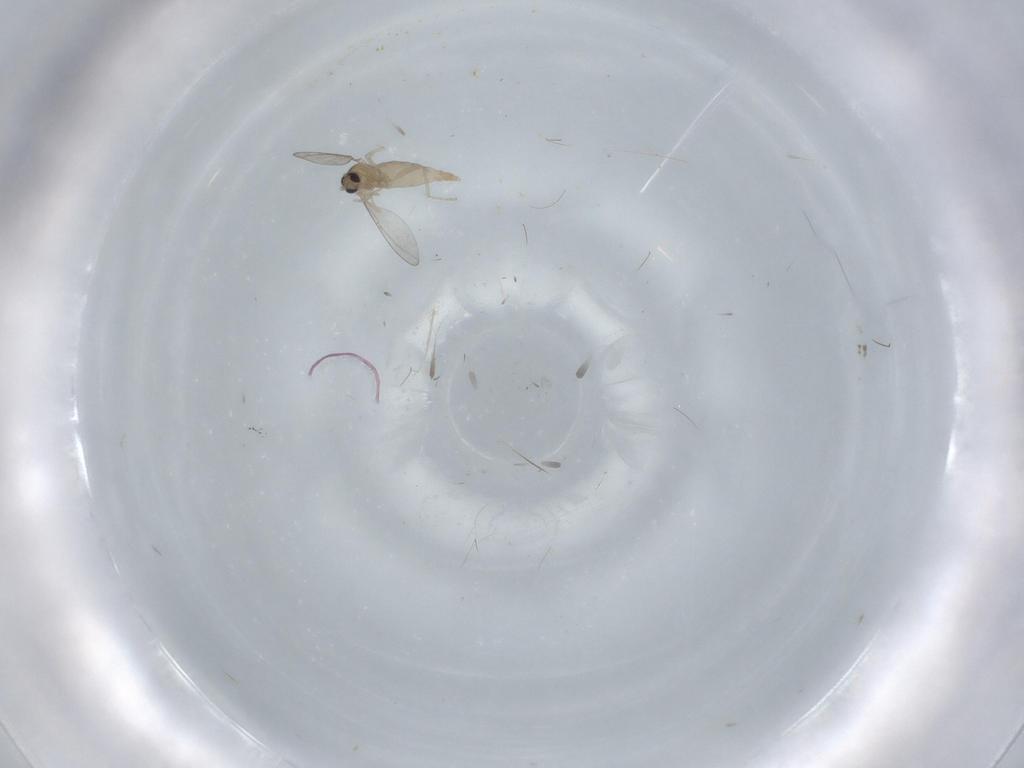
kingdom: Animalia
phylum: Arthropoda
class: Insecta
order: Diptera
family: Cecidomyiidae
